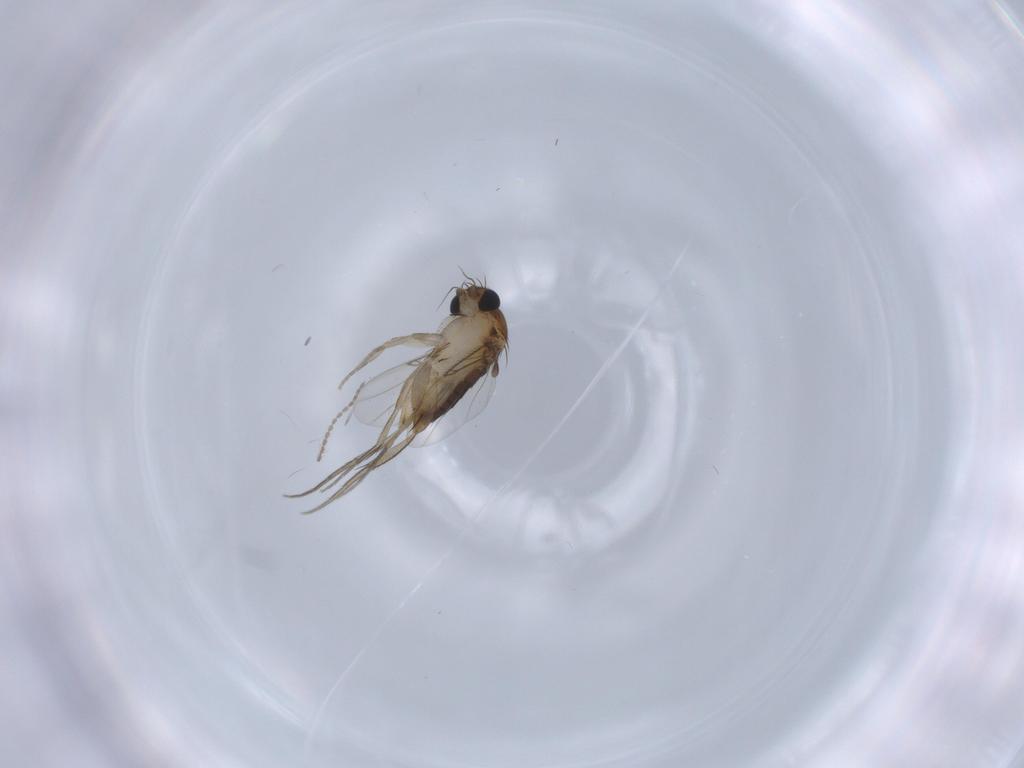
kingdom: Animalia
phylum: Arthropoda
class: Insecta
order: Diptera
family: Phoridae
